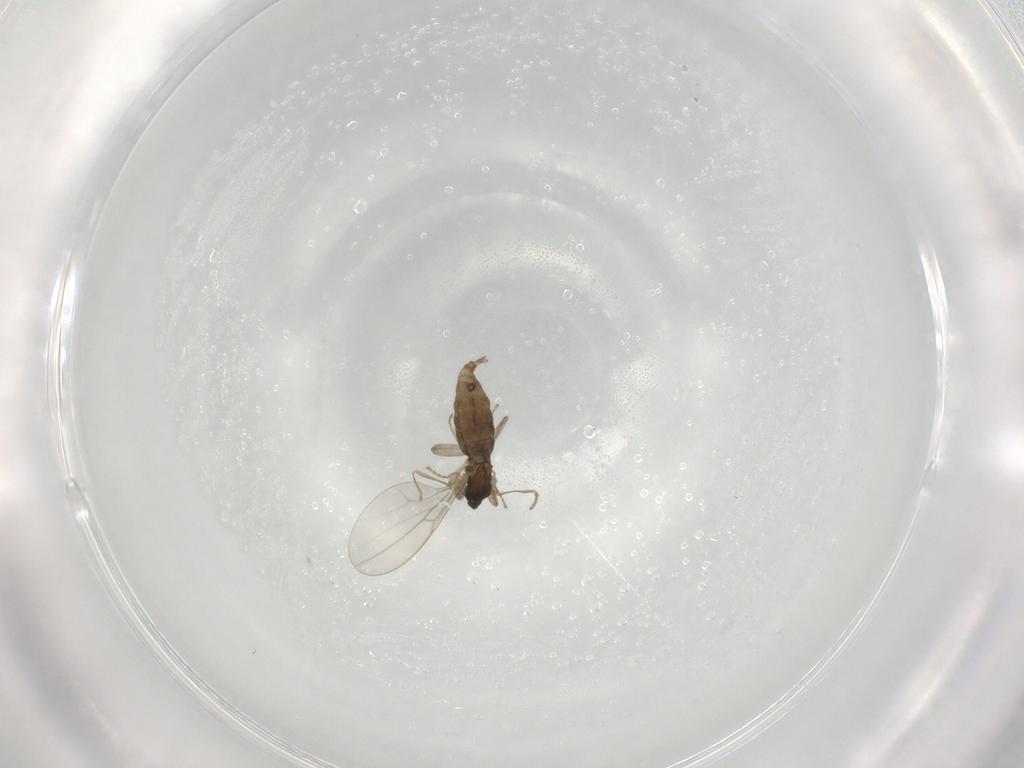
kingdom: Animalia
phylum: Arthropoda
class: Insecta
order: Diptera
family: Cecidomyiidae
